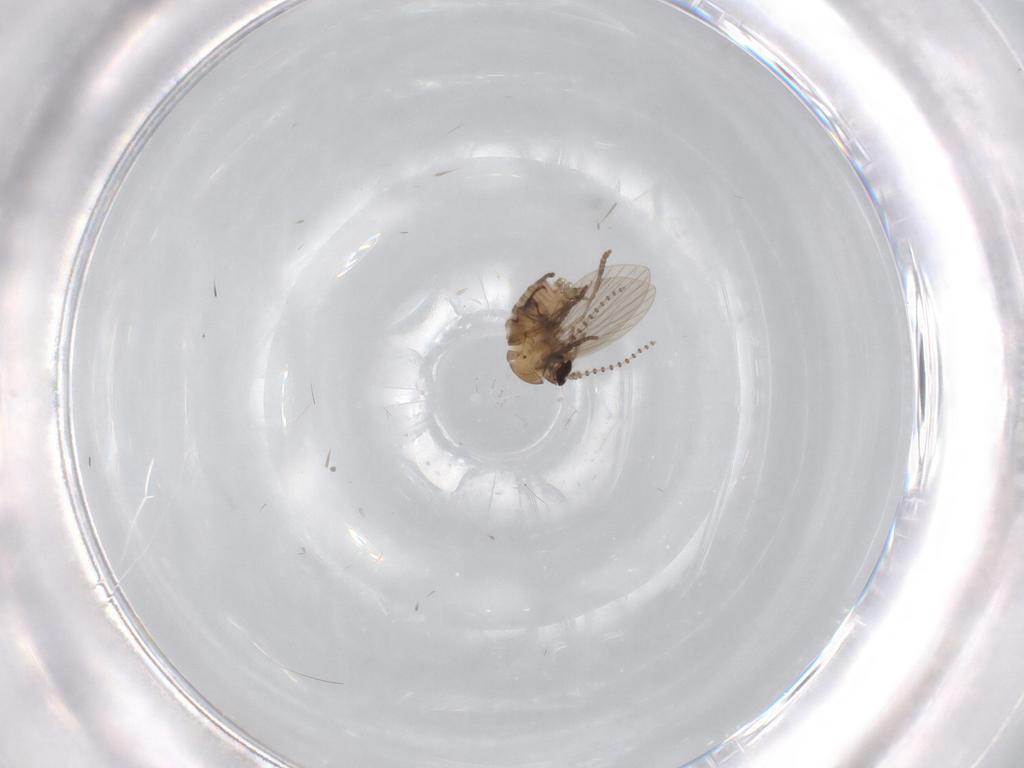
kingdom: Animalia
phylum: Arthropoda
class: Insecta
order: Diptera
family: Psychodidae
